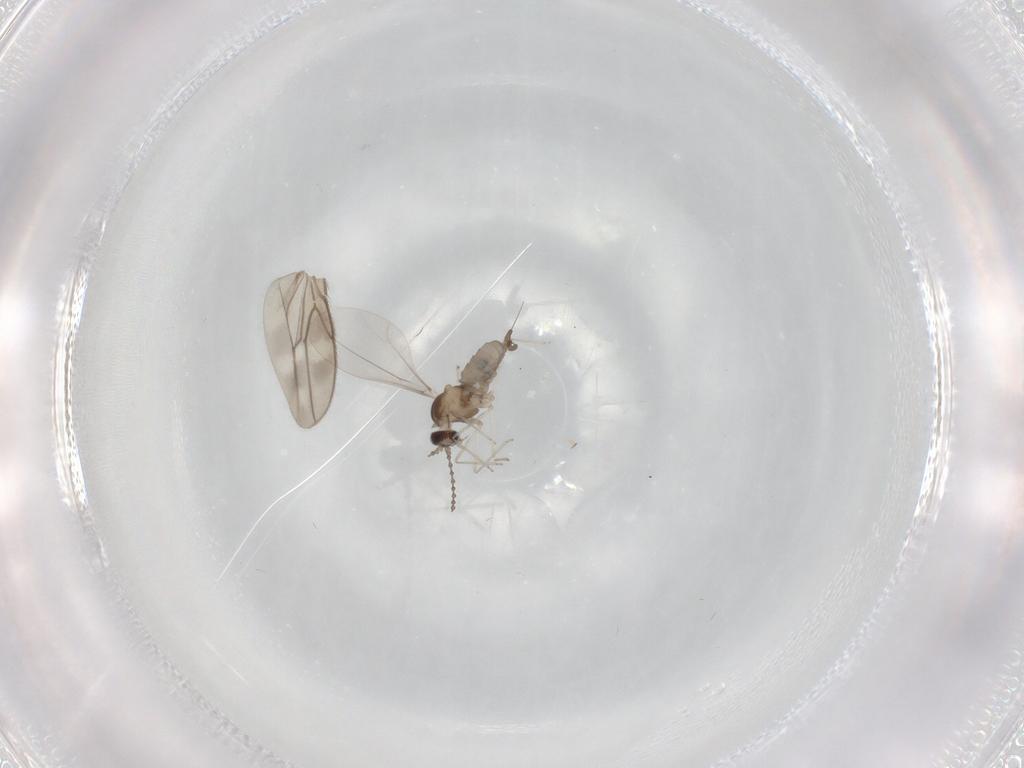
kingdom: Animalia
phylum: Arthropoda
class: Insecta
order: Diptera
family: Cecidomyiidae
